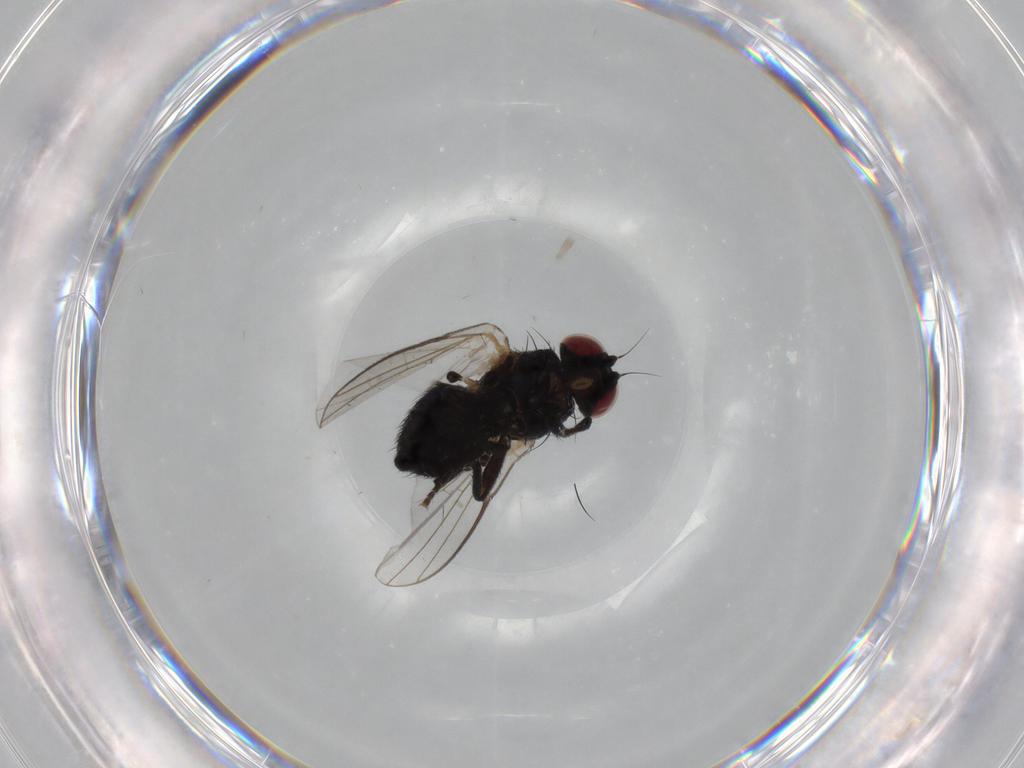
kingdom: Animalia
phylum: Arthropoda
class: Insecta
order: Diptera
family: Agromyzidae
